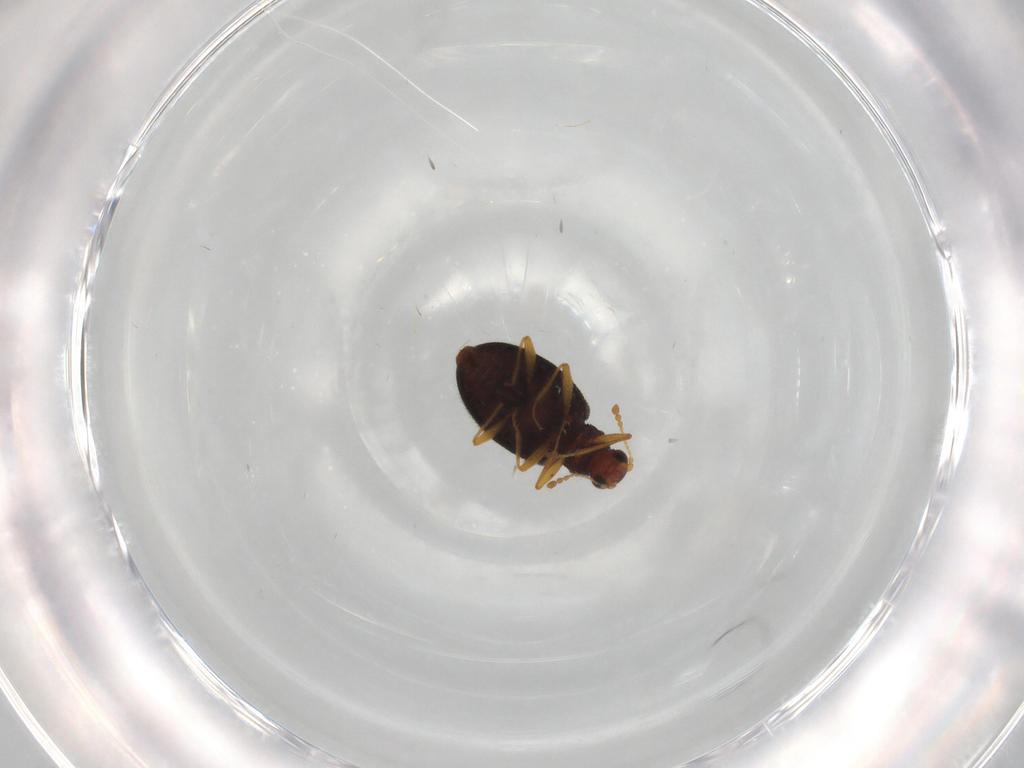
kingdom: Animalia
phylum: Arthropoda
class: Insecta
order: Coleoptera
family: Latridiidae
